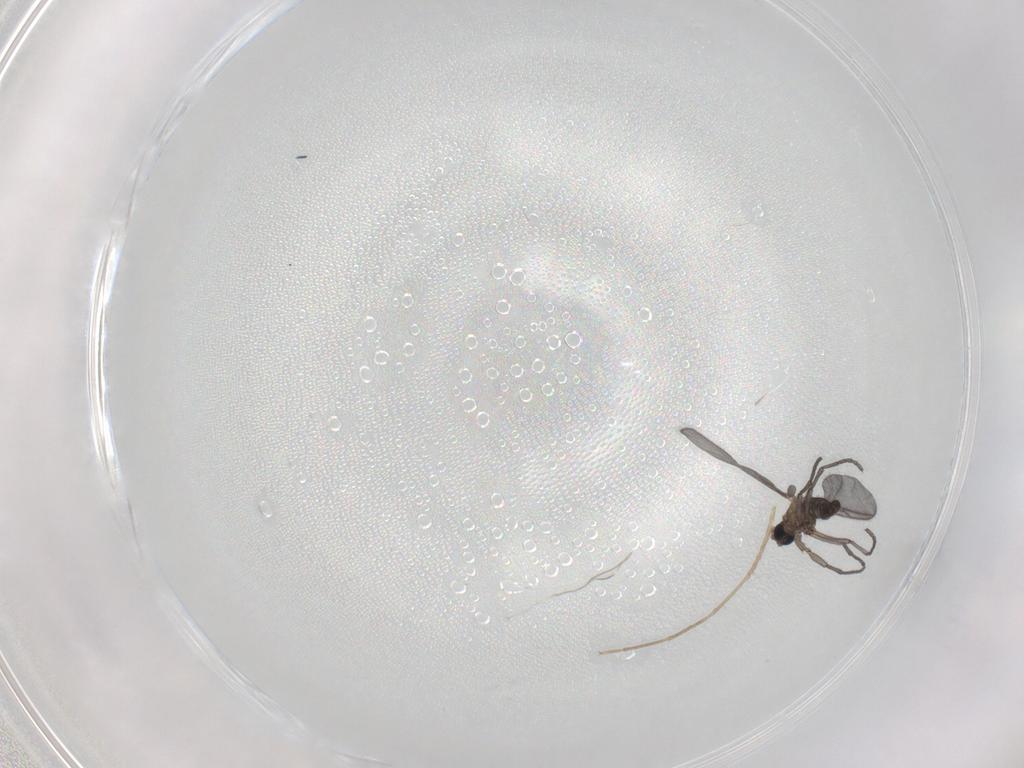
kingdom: Animalia
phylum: Arthropoda
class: Insecta
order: Diptera
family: Sciaridae
